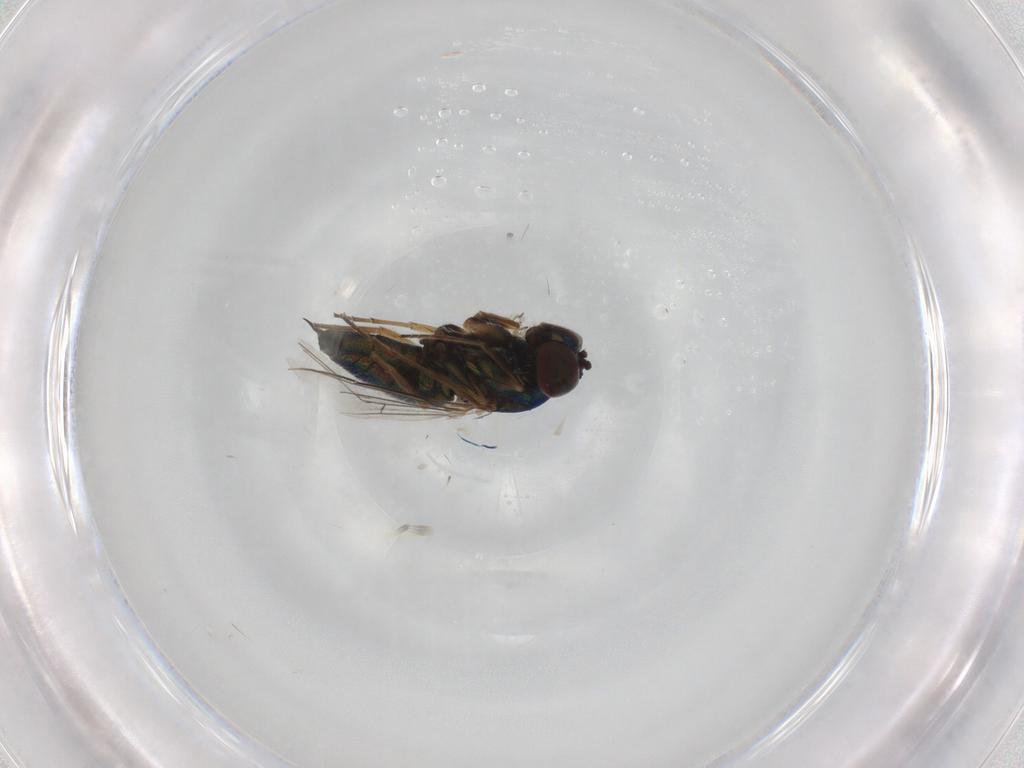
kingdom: Animalia
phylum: Arthropoda
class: Insecta
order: Diptera
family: Dolichopodidae
